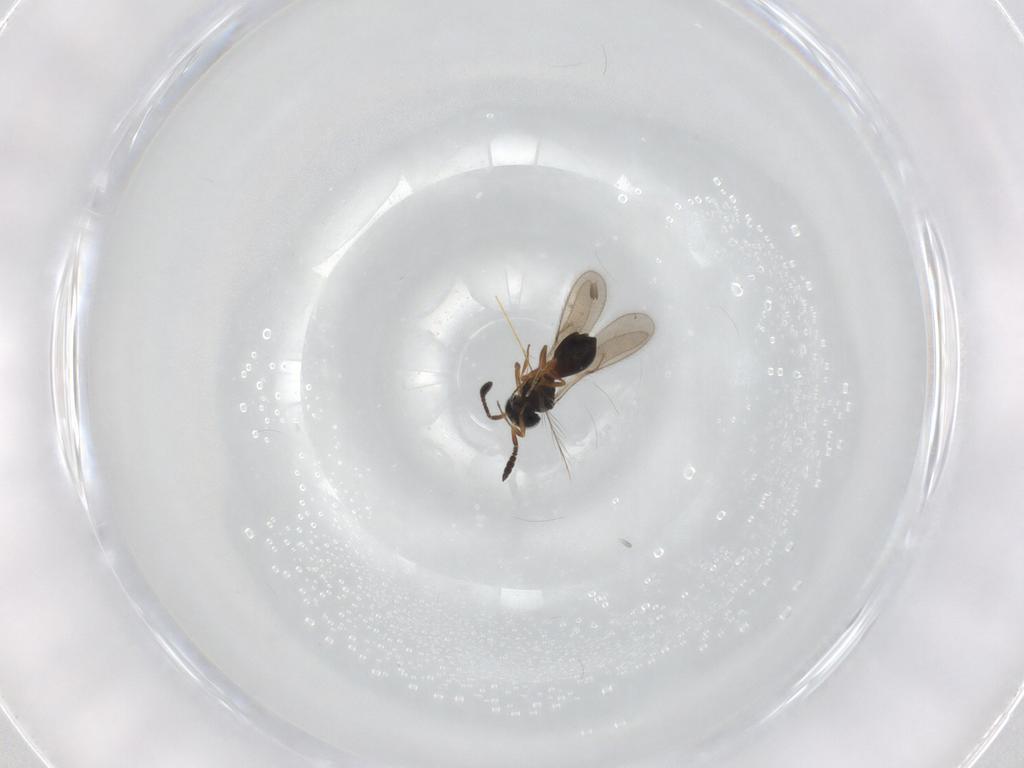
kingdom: Animalia
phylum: Arthropoda
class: Insecta
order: Hymenoptera
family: Scelionidae
